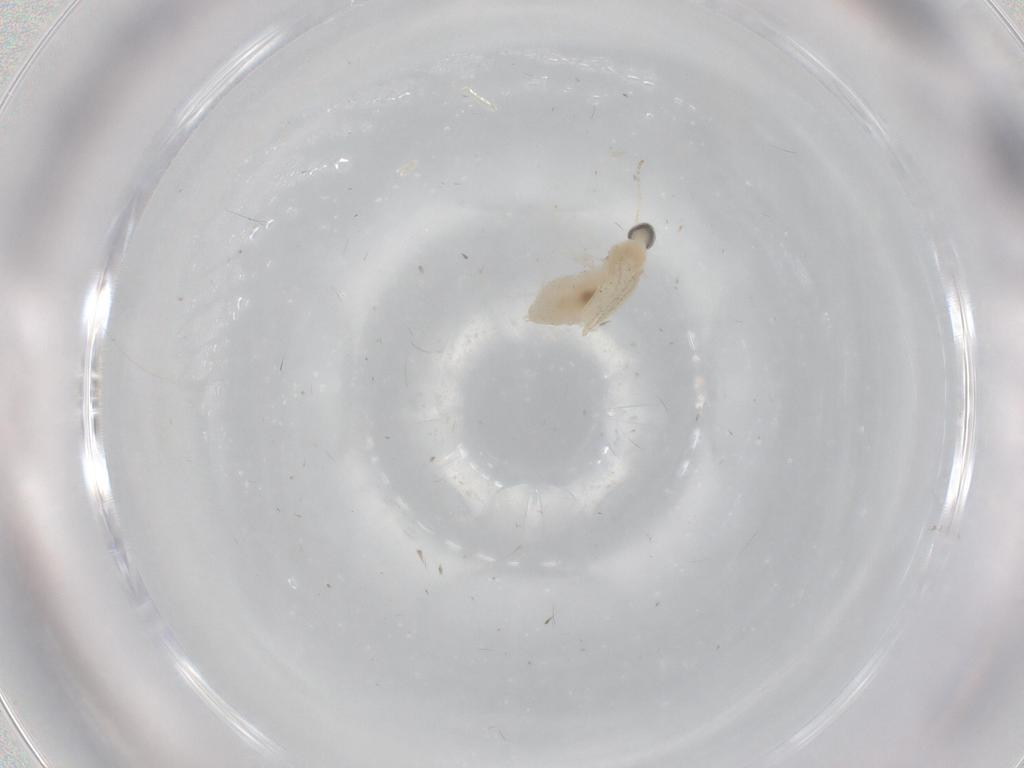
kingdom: Animalia
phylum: Arthropoda
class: Insecta
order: Diptera
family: Cecidomyiidae
